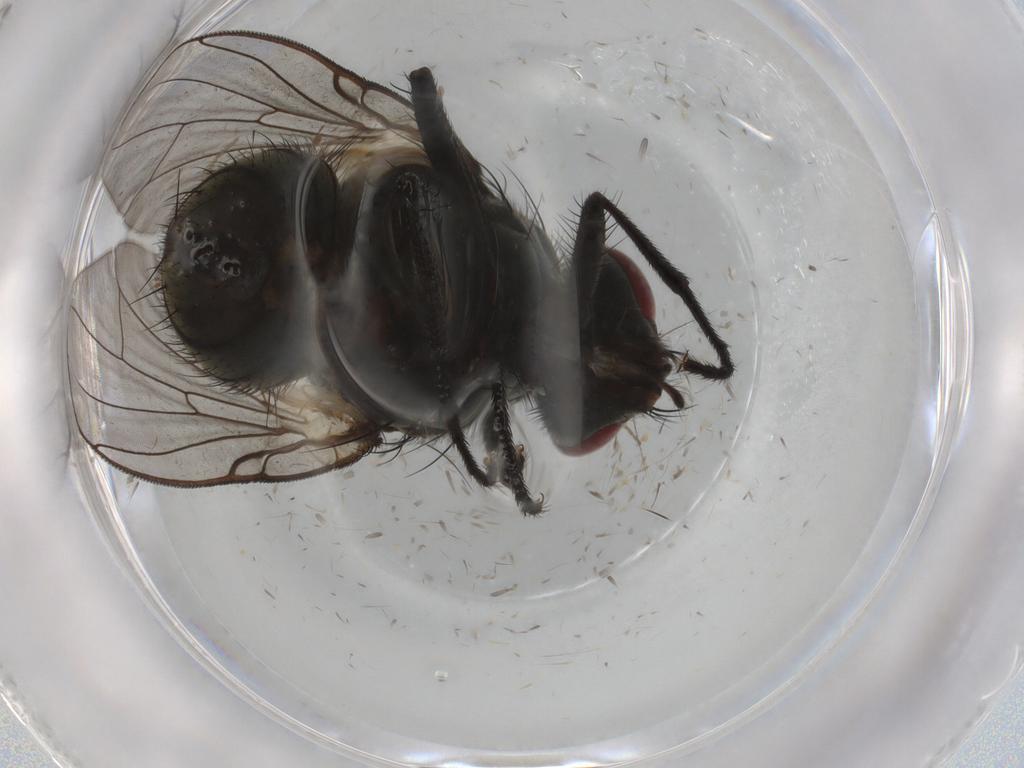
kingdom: Animalia
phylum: Arthropoda
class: Insecta
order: Diptera
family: Muscidae
